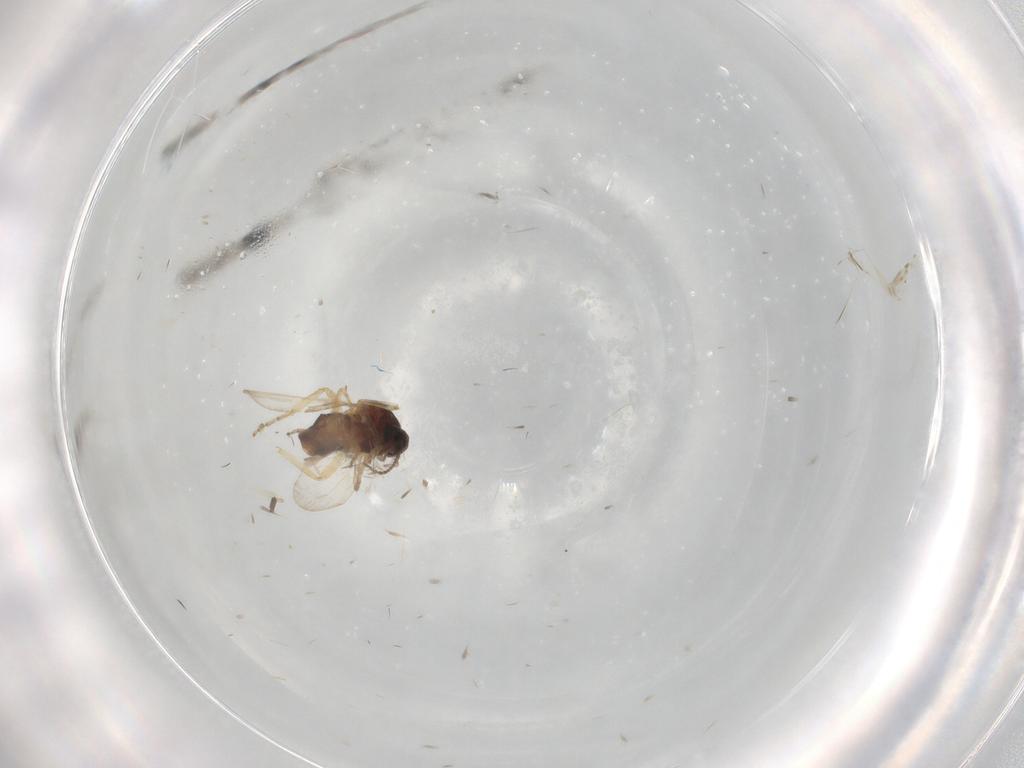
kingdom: Animalia
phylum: Arthropoda
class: Insecta
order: Diptera
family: Ceratopogonidae
